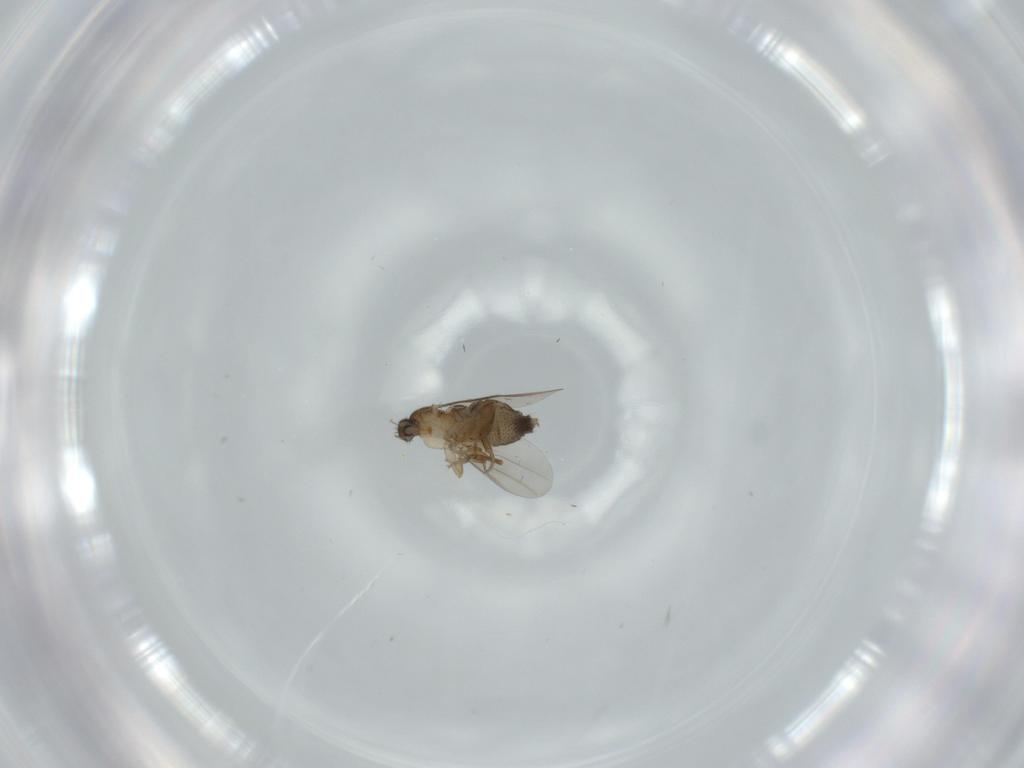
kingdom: Animalia
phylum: Arthropoda
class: Insecta
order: Diptera
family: Phoridae
